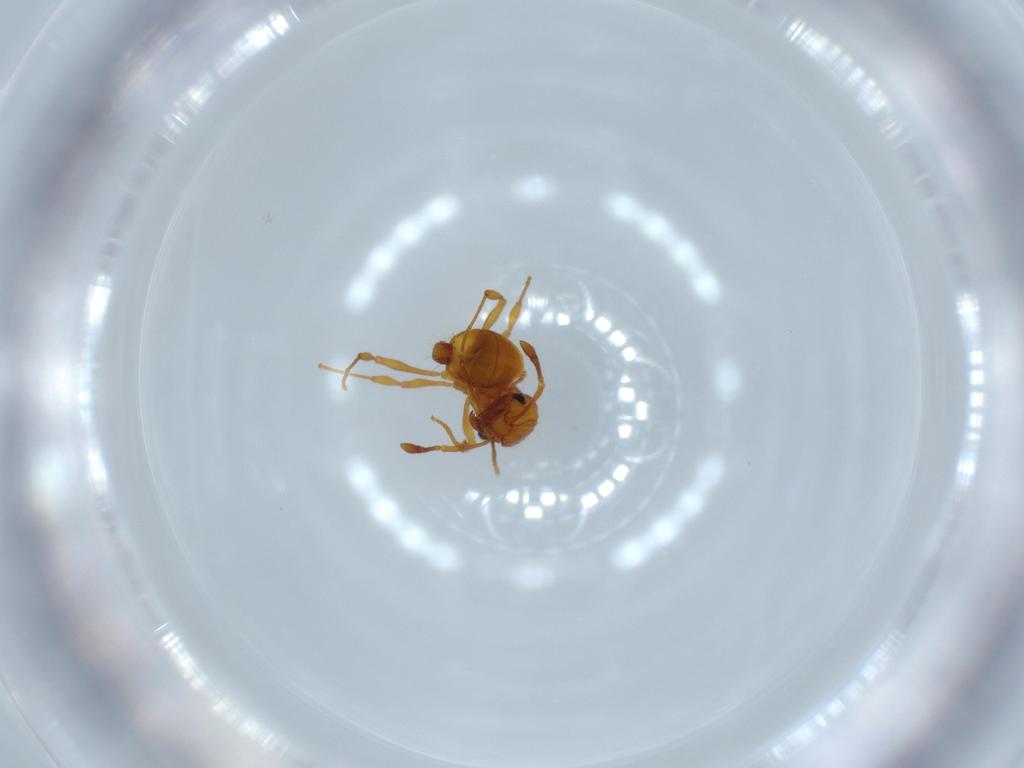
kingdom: Animalia
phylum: Arthropoda
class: Insecta
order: Hymenoptera
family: Formicidae
